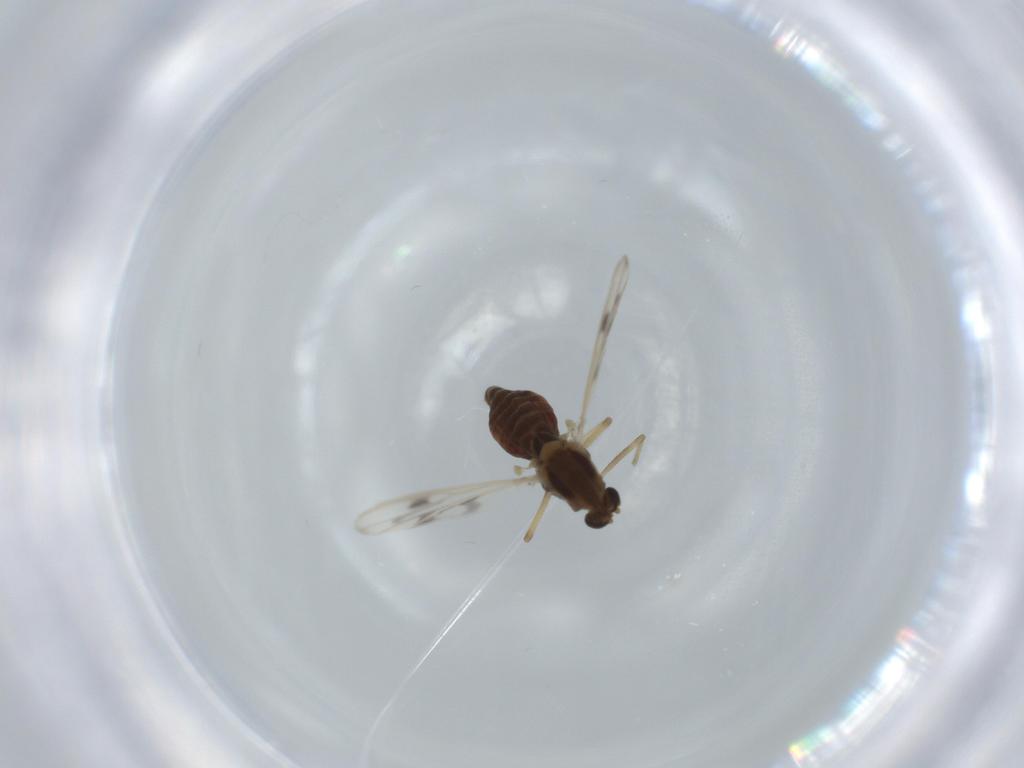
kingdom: Animalia
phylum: Arthropoda
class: Insecta
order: Diptera
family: Chironomidae
